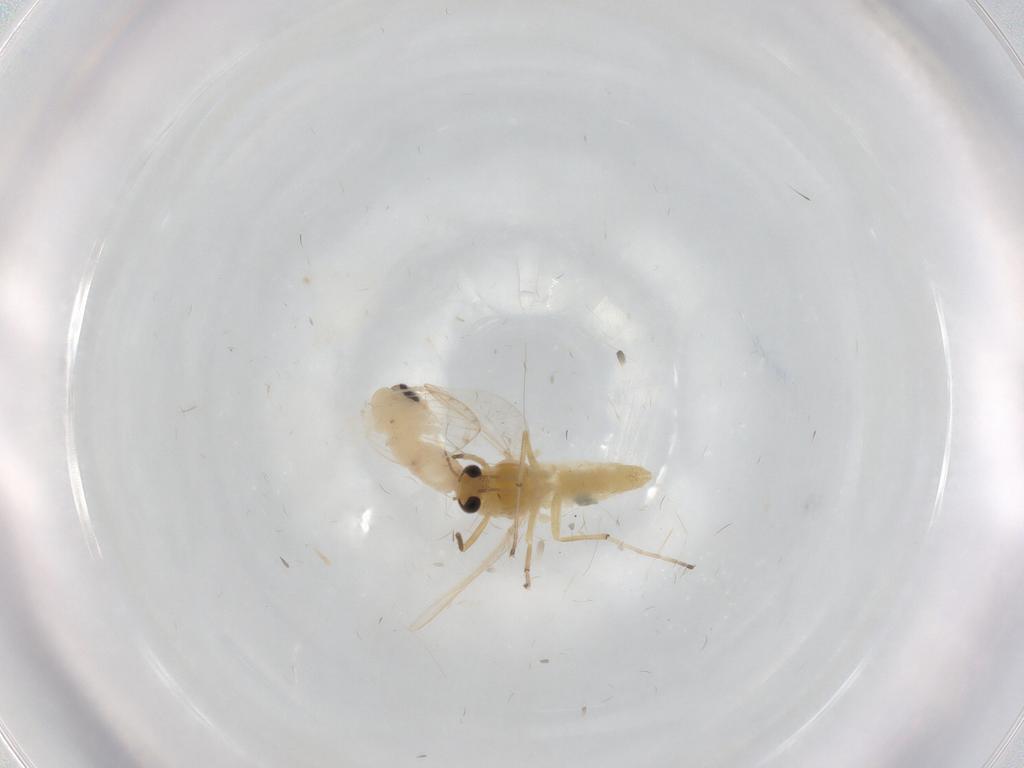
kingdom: Animalia
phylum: Arthropoda
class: Insecta
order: Diptera
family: Chironomidae
